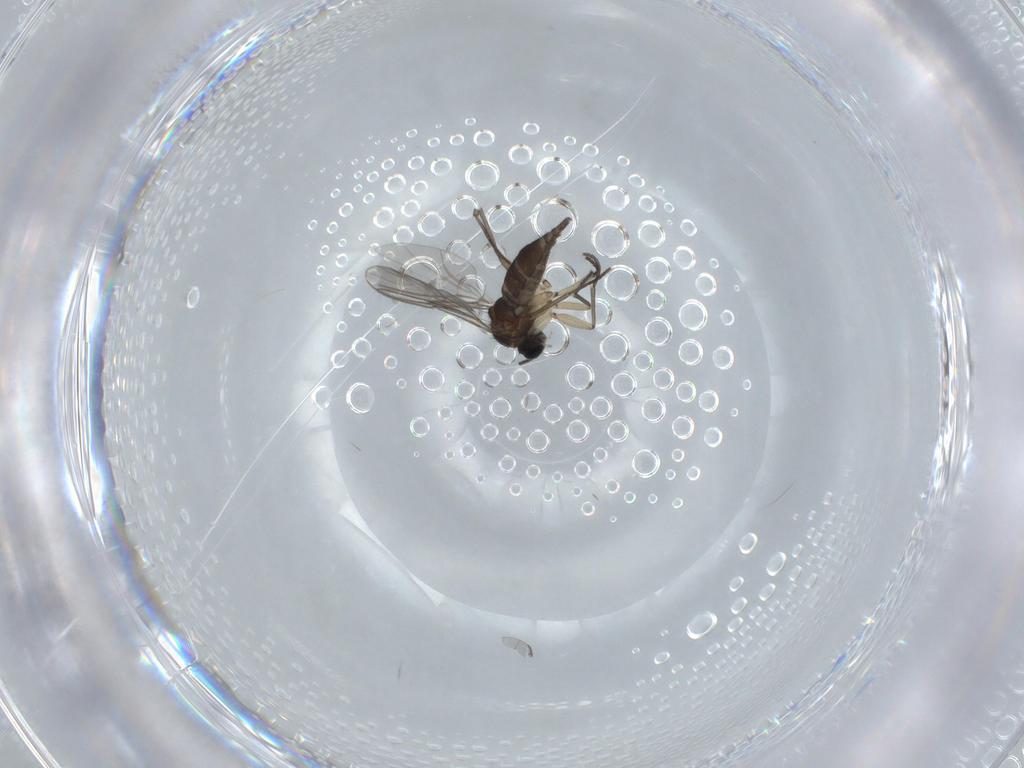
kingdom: Animalia
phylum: Arthropoda
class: Insecta
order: Diptera
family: Sciaridae
